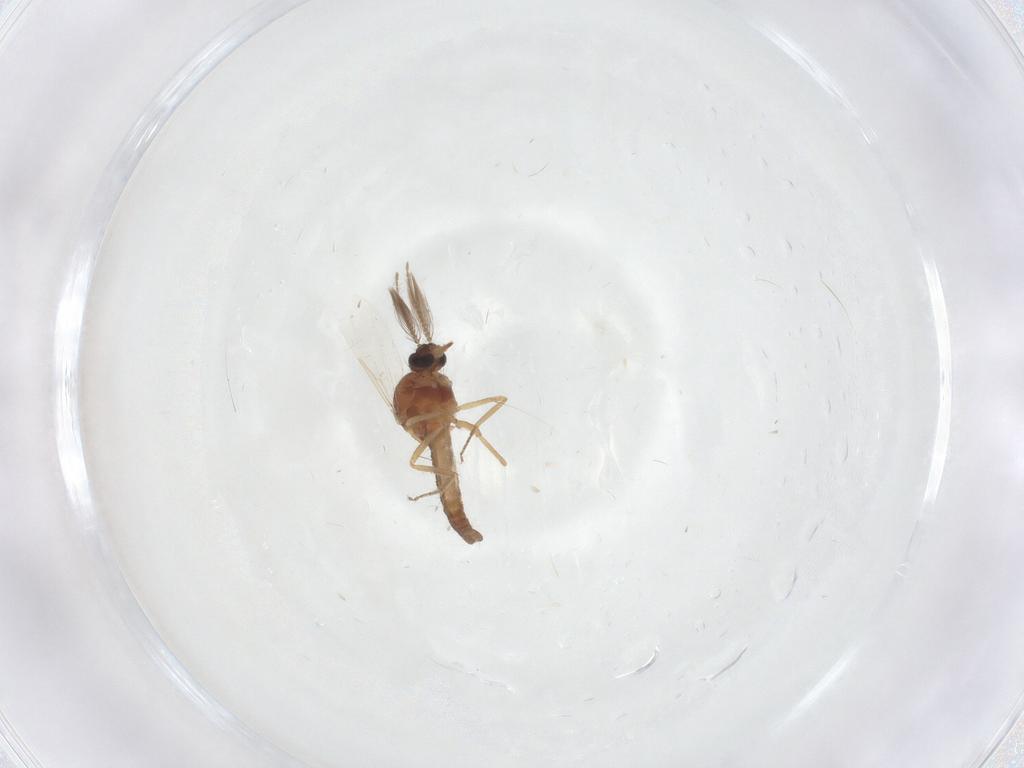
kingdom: Animalia
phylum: Arthropoda
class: Insecta
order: Diptera
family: Ceratopogonidae
